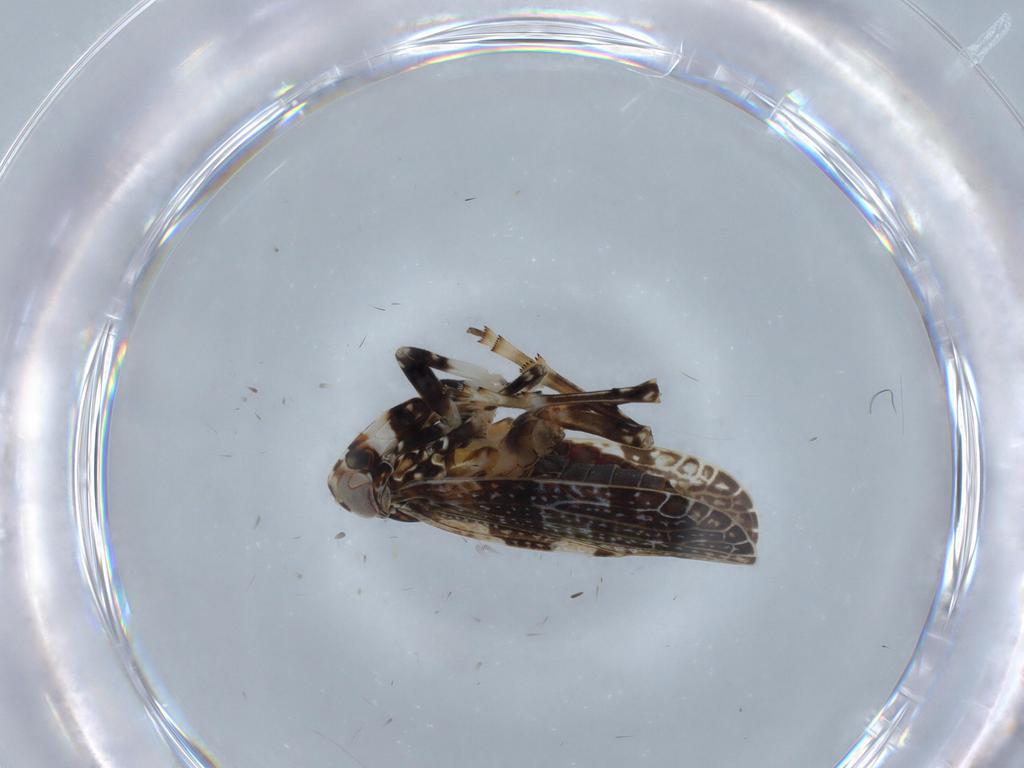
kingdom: Animalia
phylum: Arthropoda
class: Insecta
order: Hemiptera
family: Achilidae
